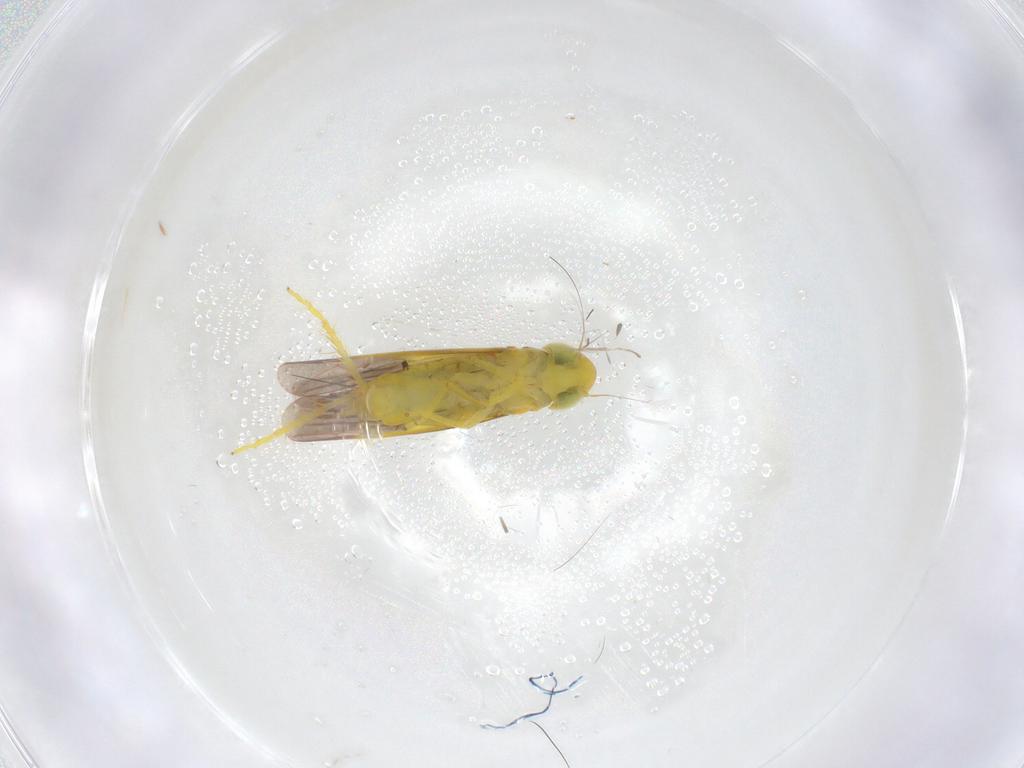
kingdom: Animalia
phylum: Arthropoda
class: Insecta
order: Hemiptera
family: Cicadellidae
